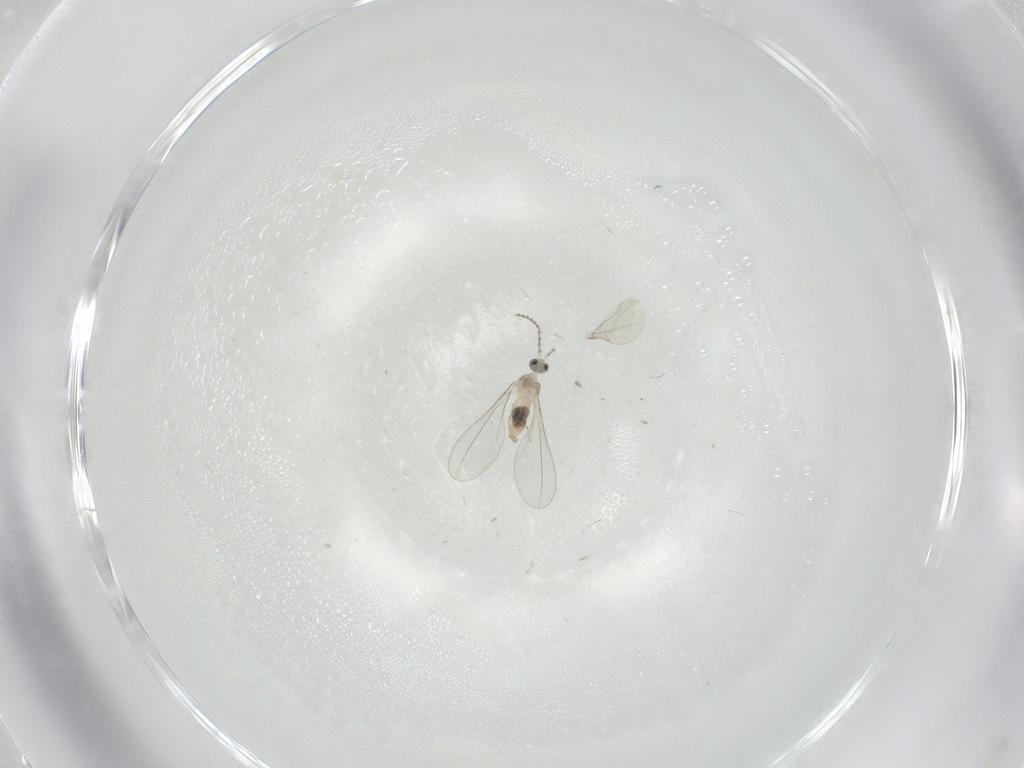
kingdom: Animalia
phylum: Arthropoda
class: Insecta
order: Diptera
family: Cecidomyiidae
